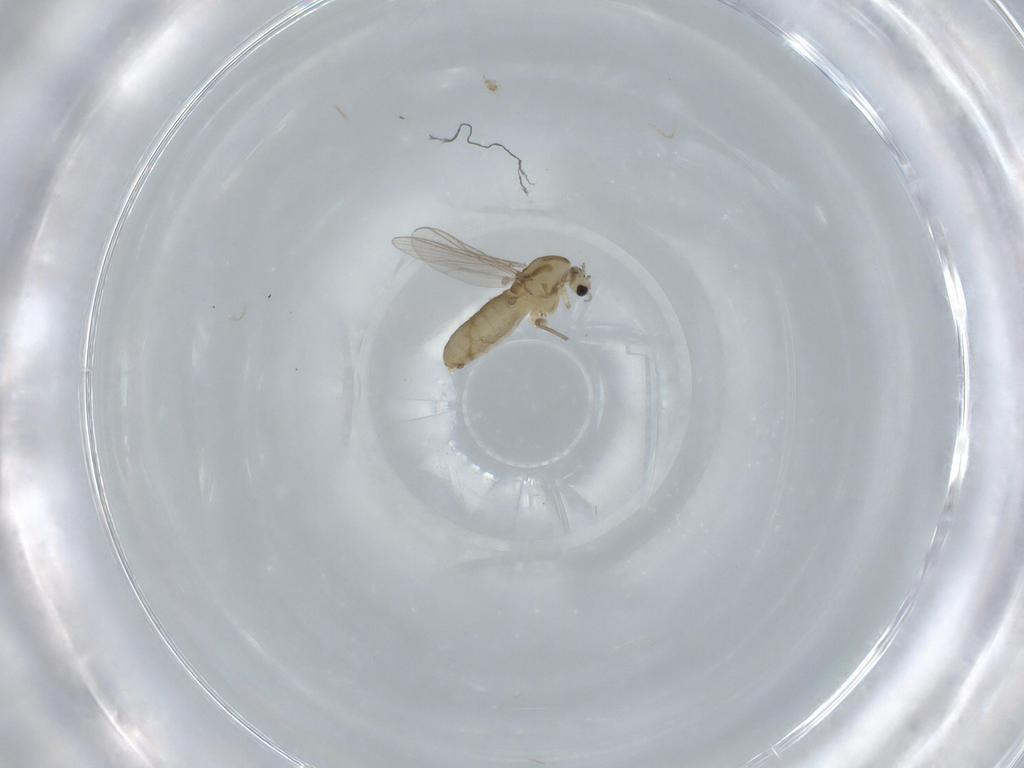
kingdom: Animalia
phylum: Arthropoda
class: Insecta
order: Diptera
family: Chironomidae
